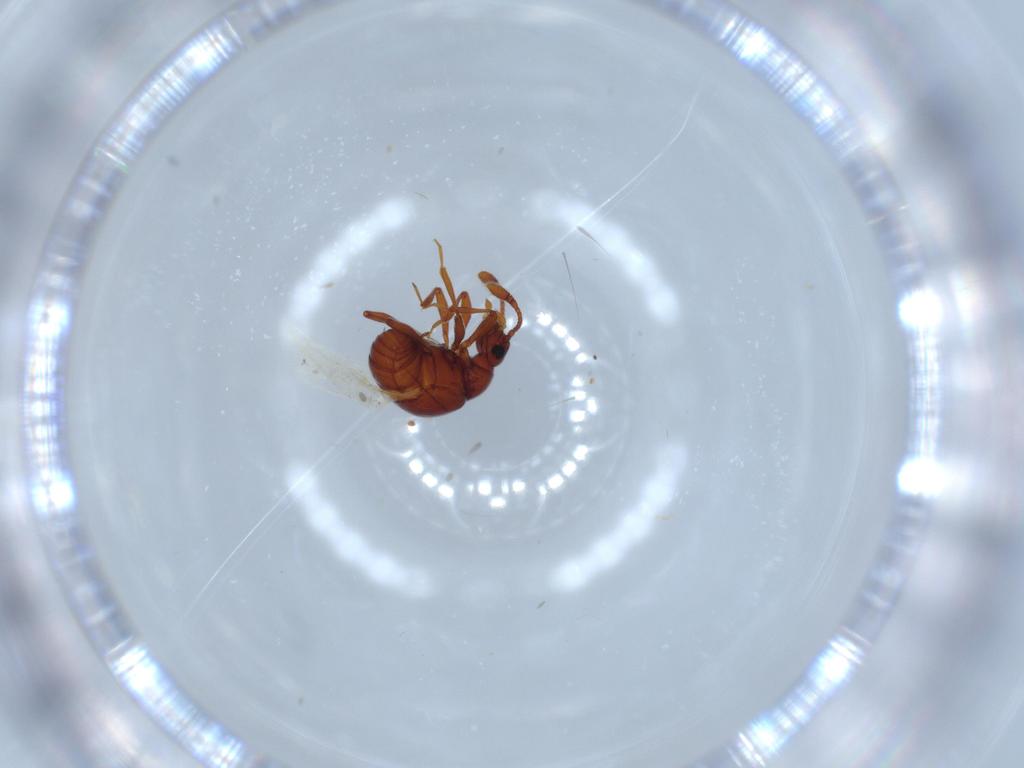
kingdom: Animalia
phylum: Arthropoda
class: Insecta
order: Coleoptera
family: Staphylinidae
